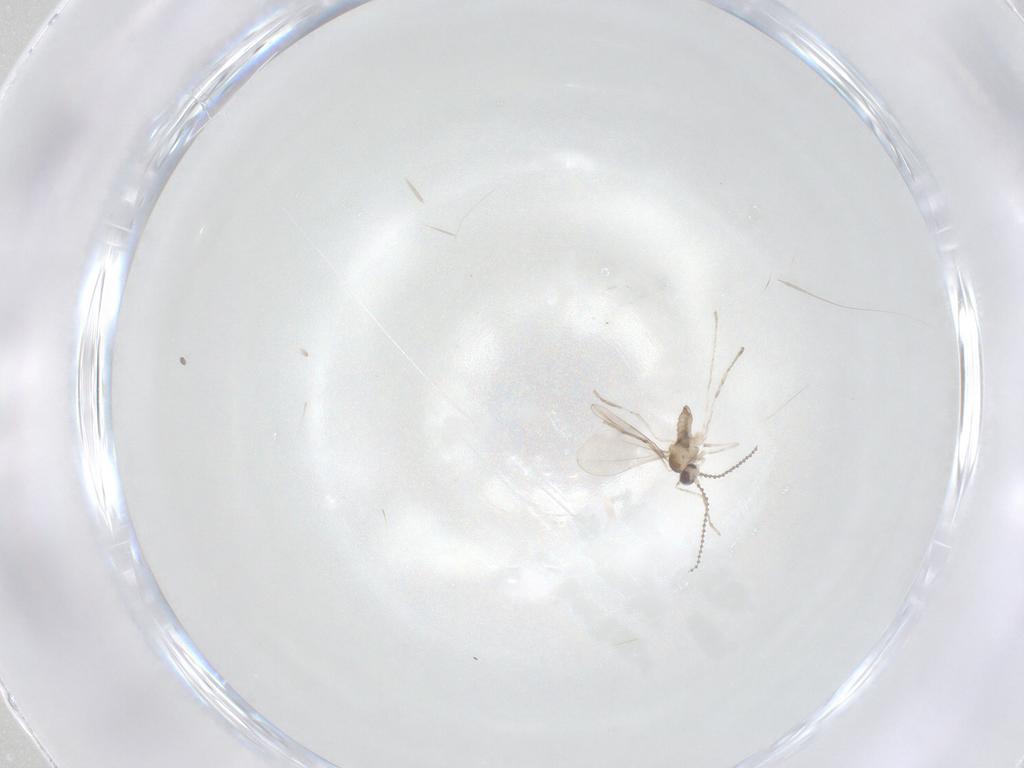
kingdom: Animalia
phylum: Arthropoda
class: Insecta
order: Diptera
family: Cecidomyiidae
